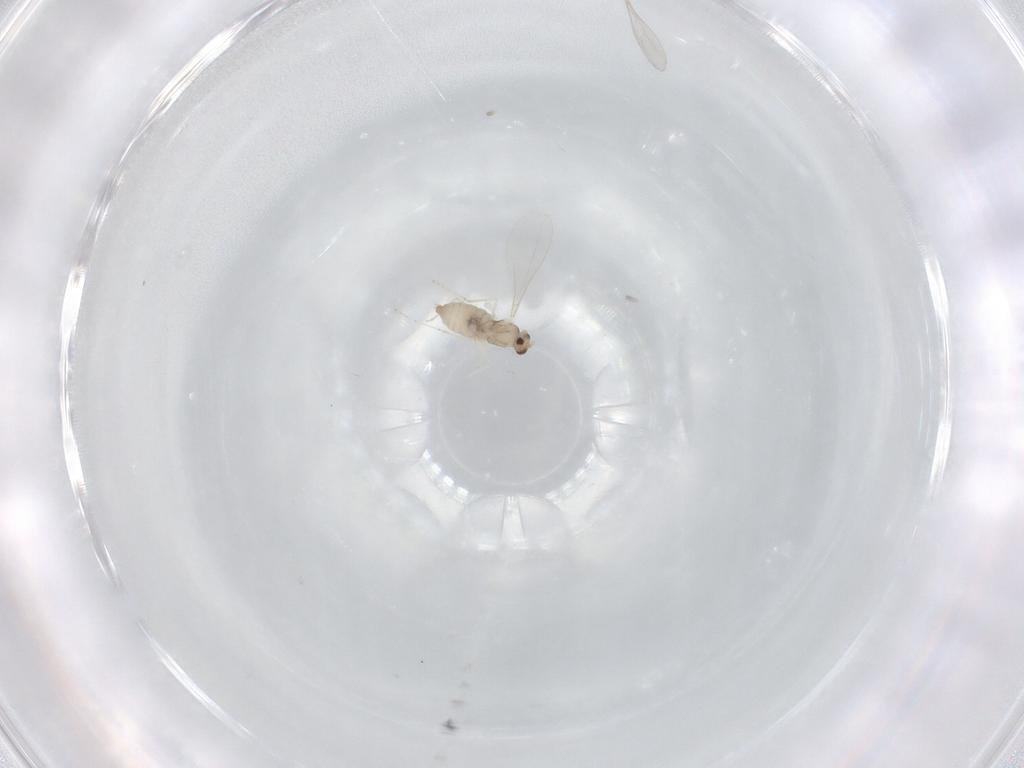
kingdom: Animalia
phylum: Arthropoda
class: Insecta
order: Diptera
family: Cecidomyiidae
